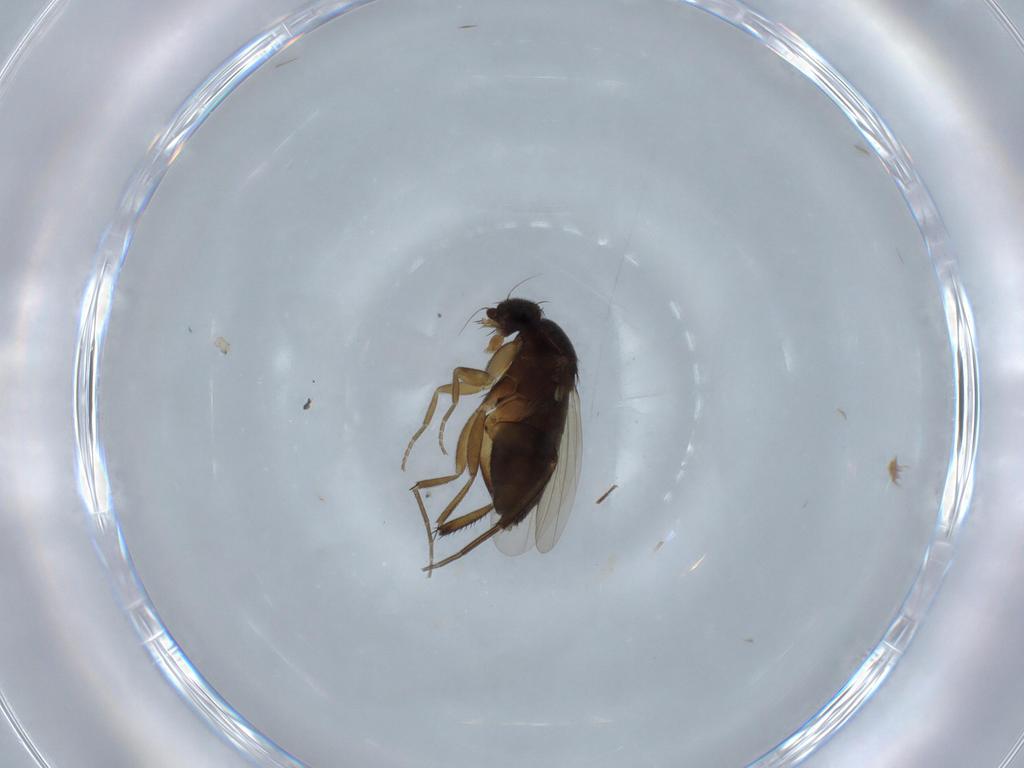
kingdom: Animalia
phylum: Arthropoda
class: Insecta
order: Diptera
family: Phoridae
